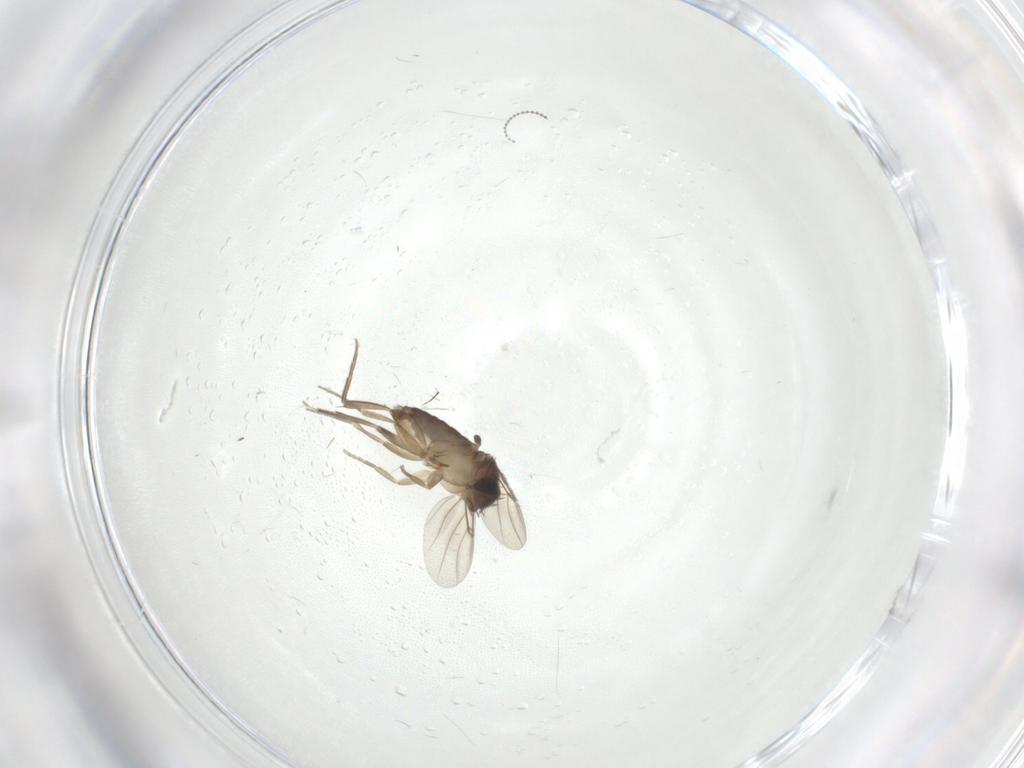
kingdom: Animalia
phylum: Arthropoda
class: Insecta
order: Diptera
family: Cecidomyiidae
